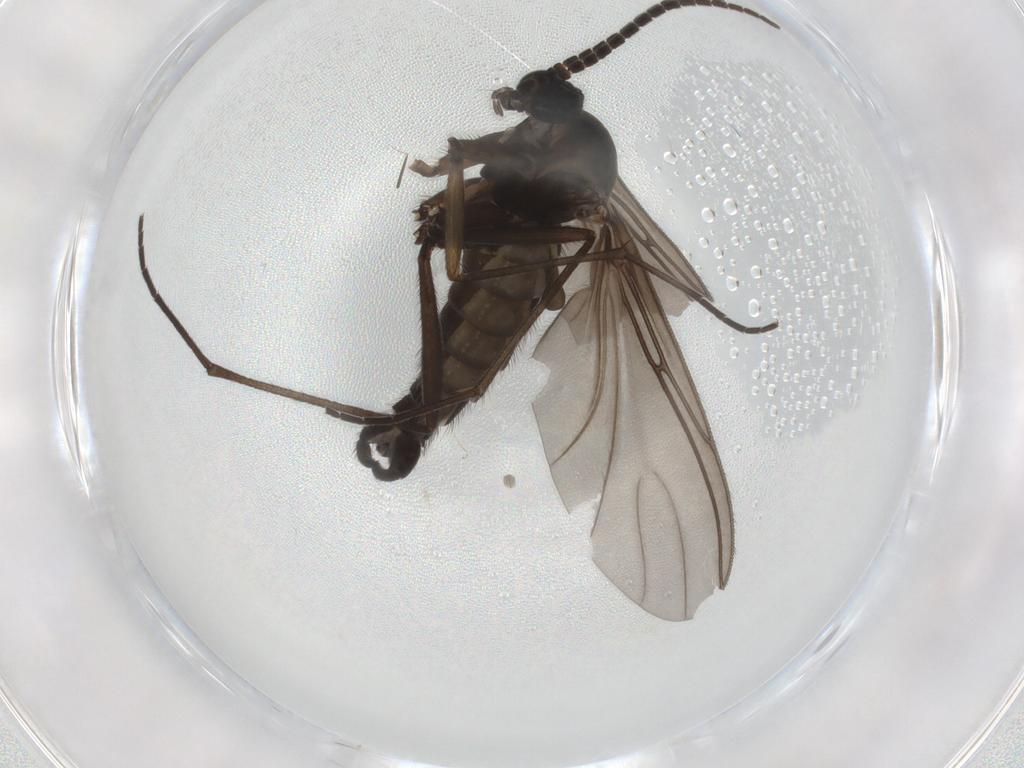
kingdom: Animalia
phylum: Arthropoda
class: Insecta
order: Diptera
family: Sciaridae
